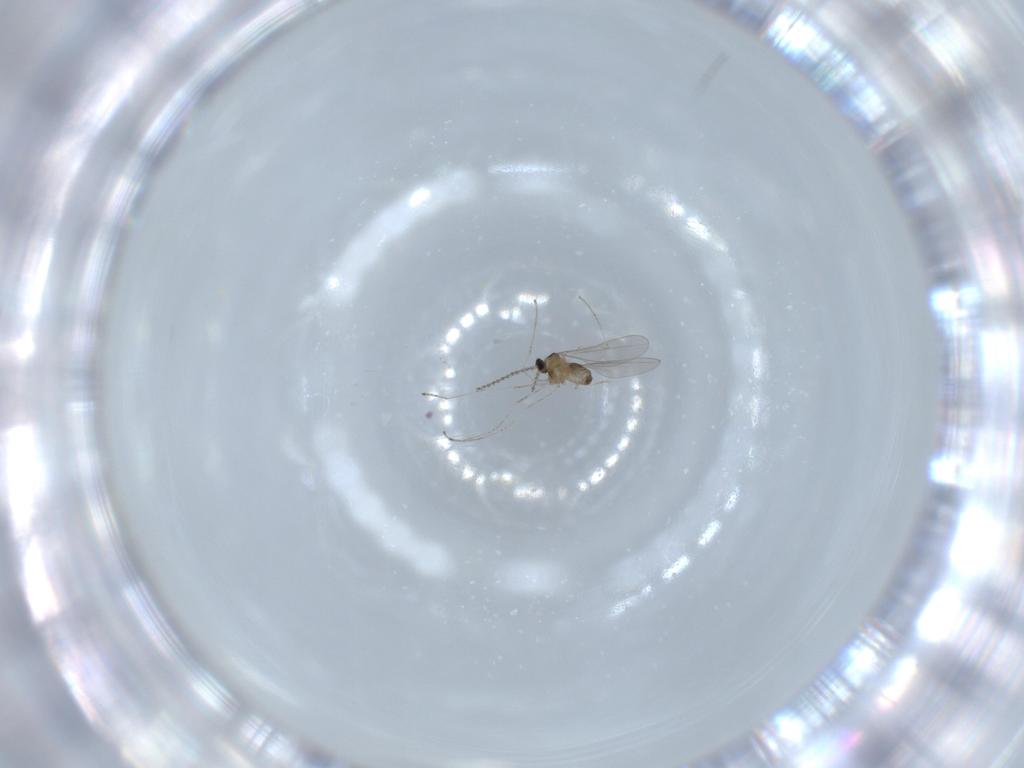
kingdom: Animalia
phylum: Arthropoda
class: Insecta
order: Diptera
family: Cecidomyiidae
